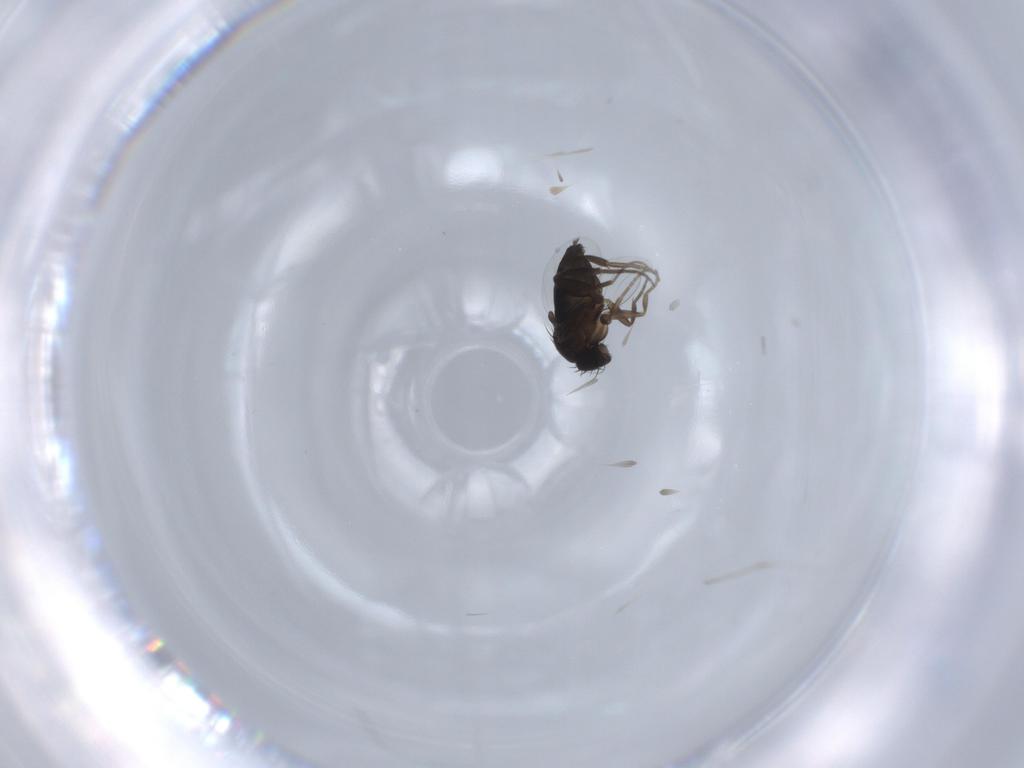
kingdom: Animalia
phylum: Arthropoda
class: Insecta
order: Diptera
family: Phoridae
